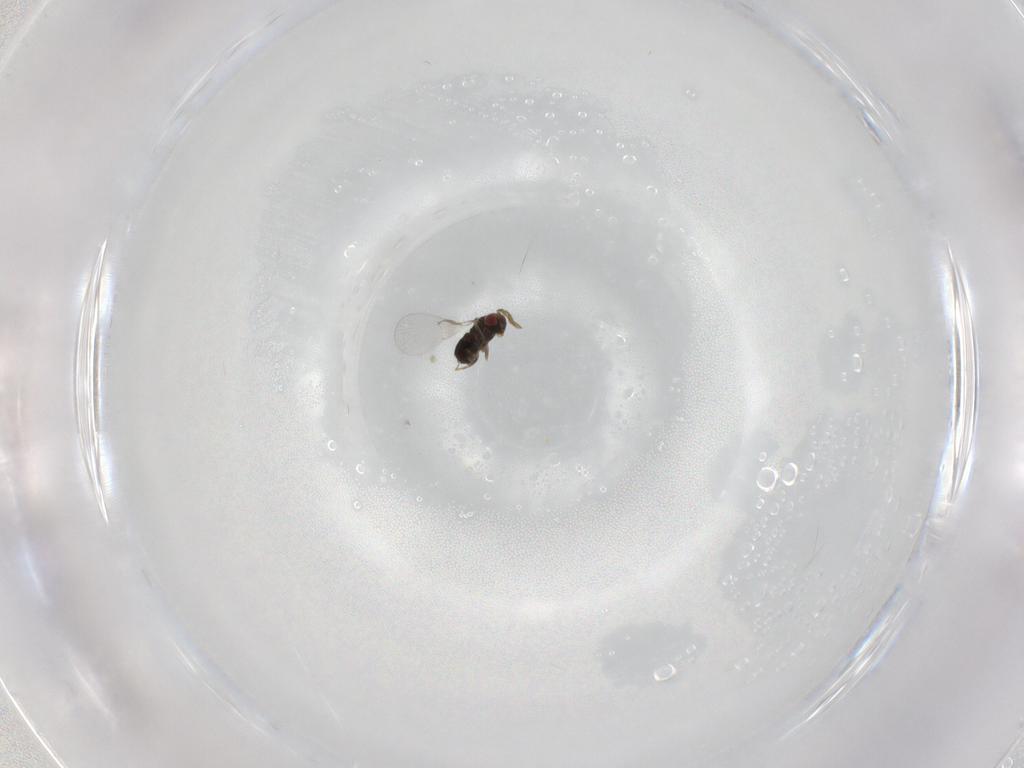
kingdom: Animalia
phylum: Arthropoda
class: Insecta
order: Hymenoptera
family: Trichogrammatidae
